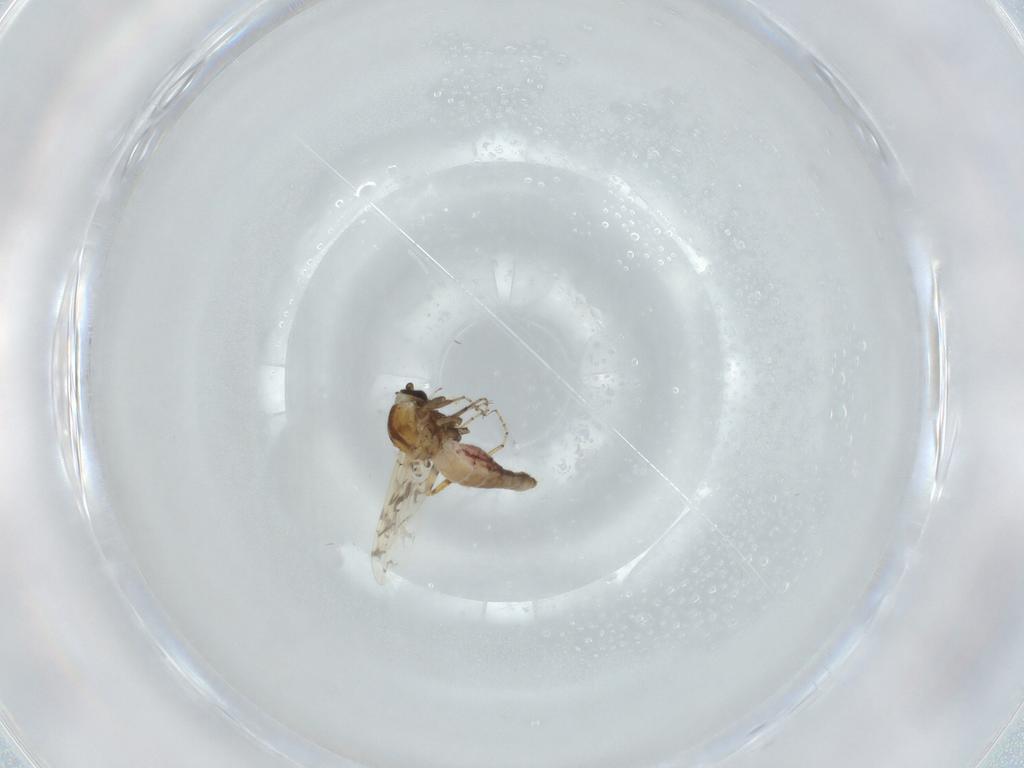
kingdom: Animalia
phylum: Arthropoda
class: Insecta
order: Diptera
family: Ceratopogonidae
